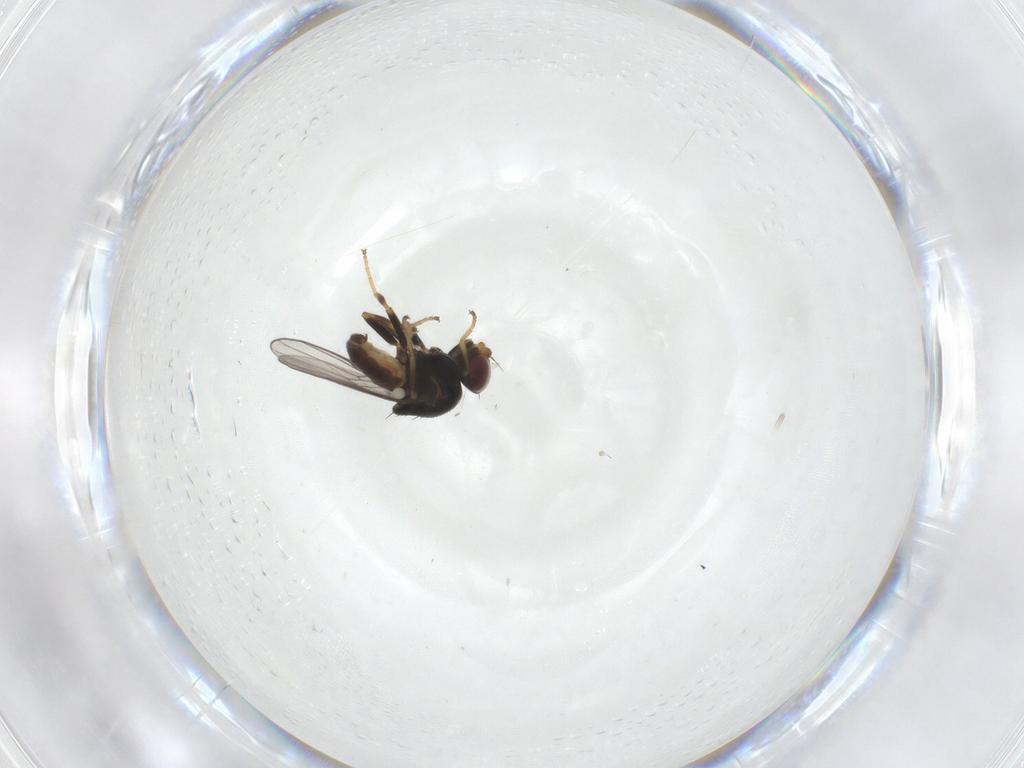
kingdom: Animalia
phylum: Arthropoda
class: Insecta
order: Diptera
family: Chloropidae
